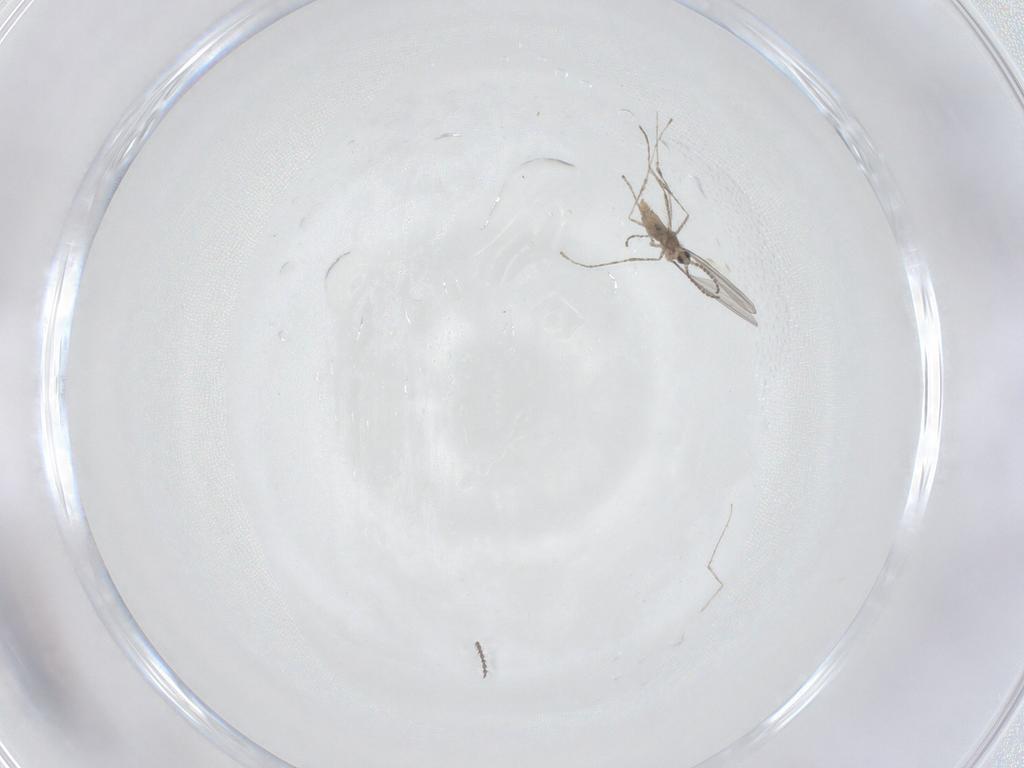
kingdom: Animalia
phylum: Arthropoda
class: Insecta
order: Diptera
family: Cecidomyiidae
